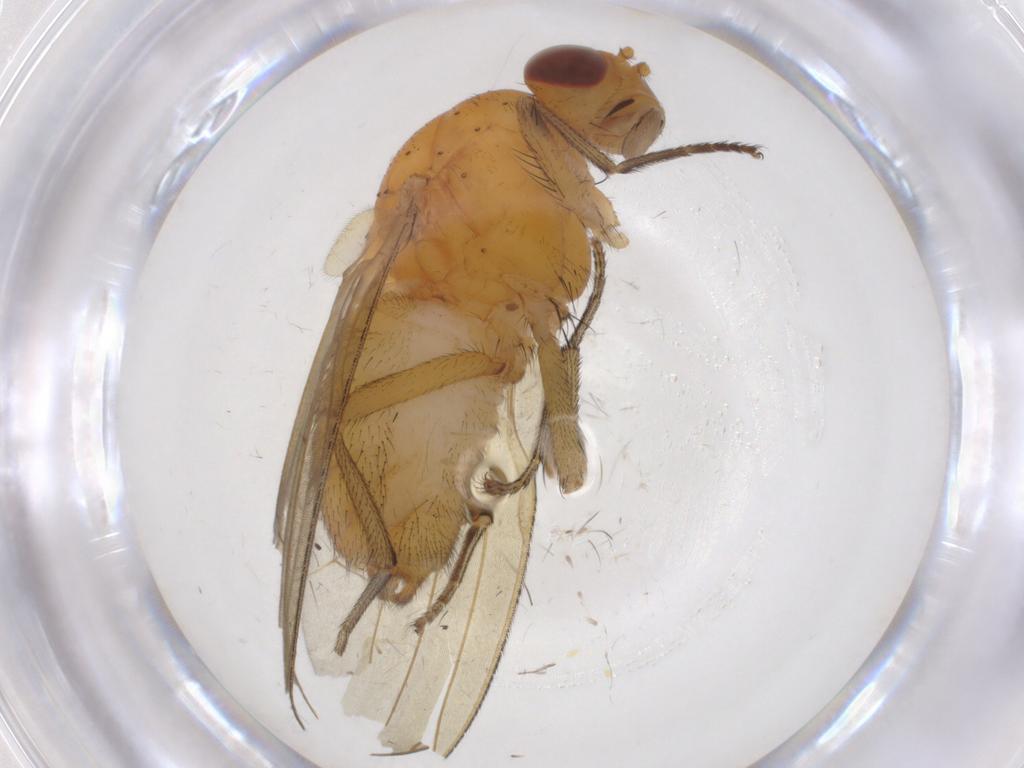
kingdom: Animalia
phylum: Arthropoda
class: Insecta
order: Diptera
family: Lauxaniidae
